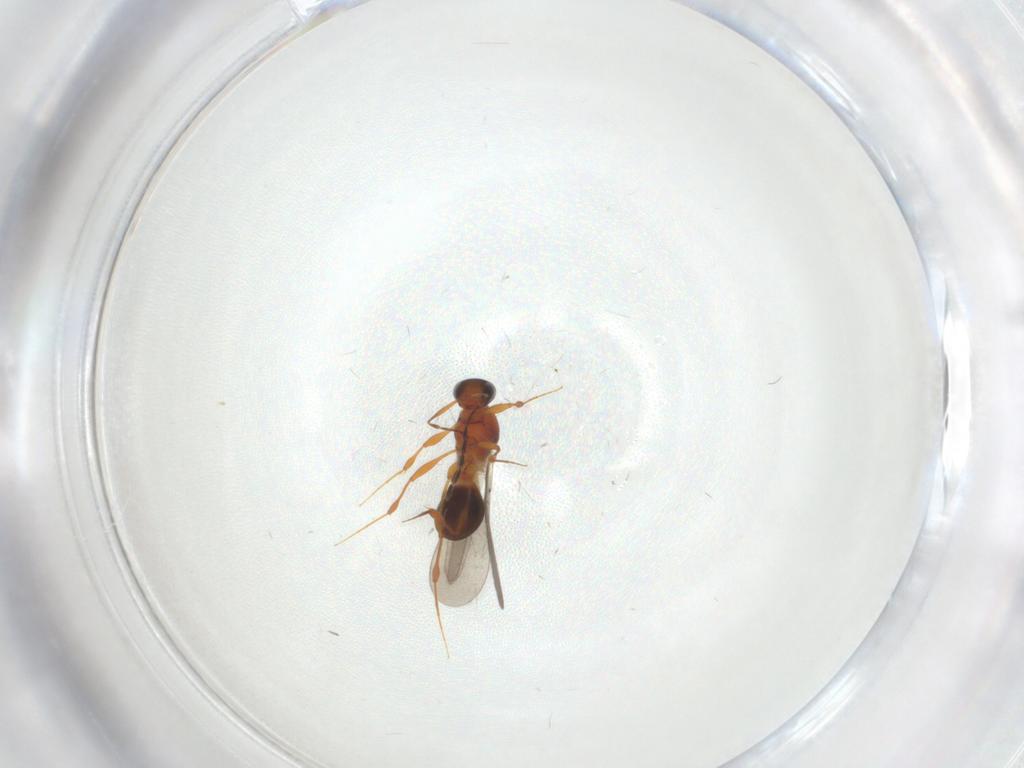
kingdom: Animalia
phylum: Arthropoda
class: Insecta
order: Hymenoptera
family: Platygastridae
